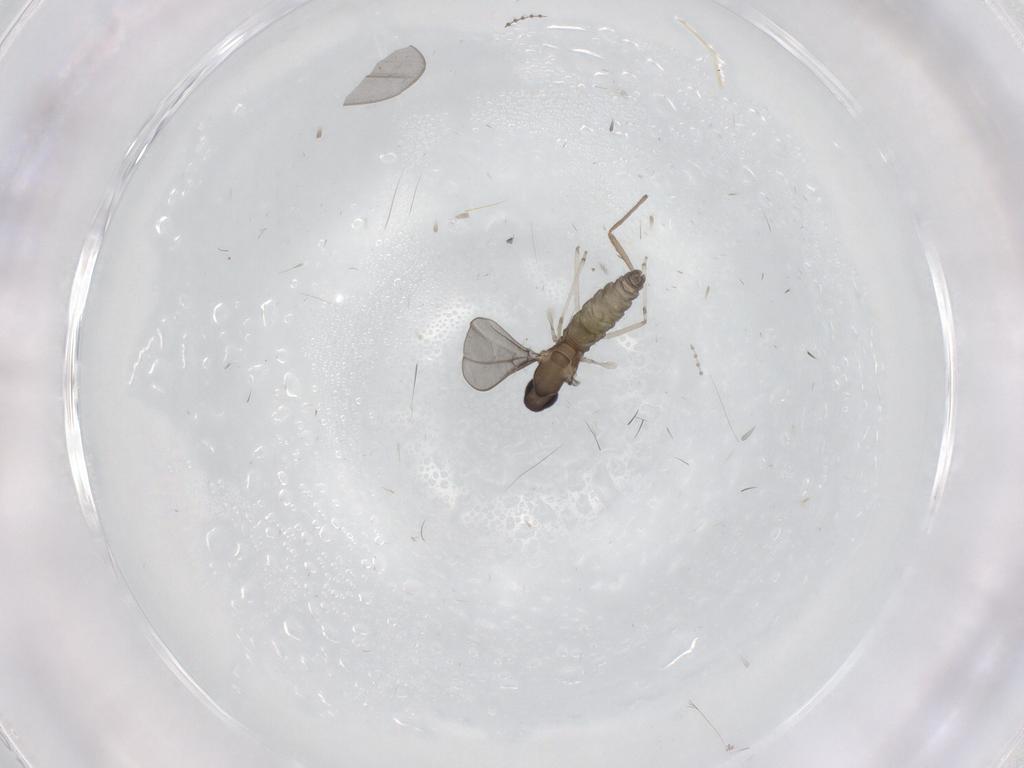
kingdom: Animalia
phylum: Arthropoda
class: Insecta
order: Diptera
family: Chironomidae
